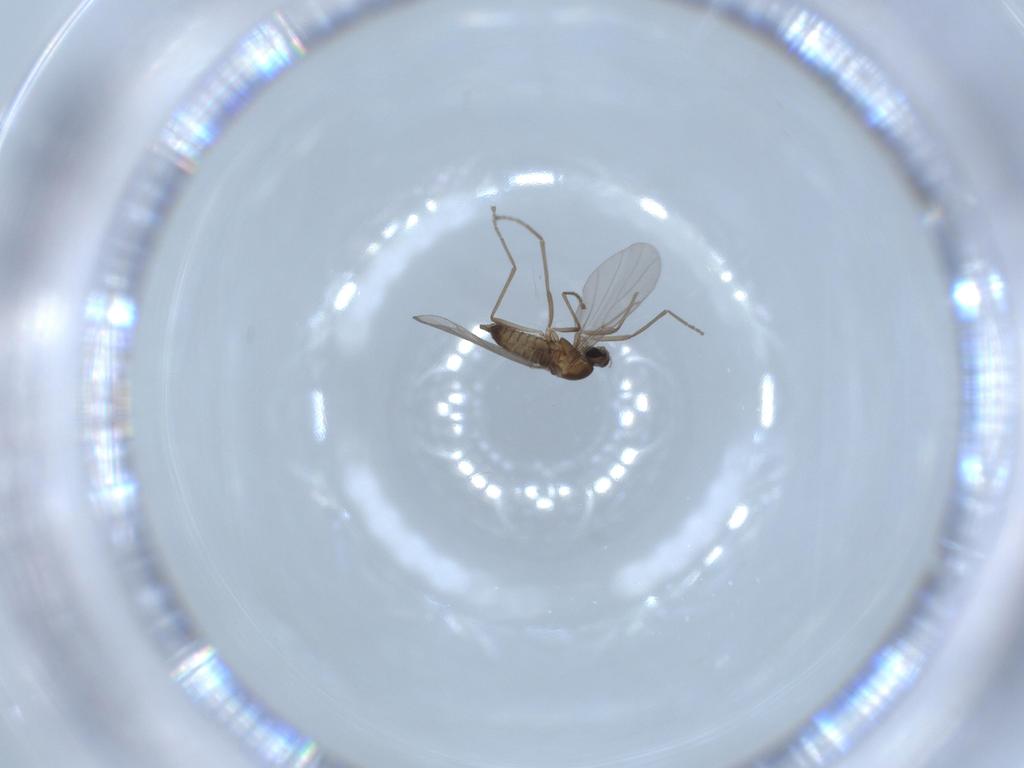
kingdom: Animalia
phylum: Arthropoda
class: Insecta
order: Diptera
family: Cecidomyiidae
